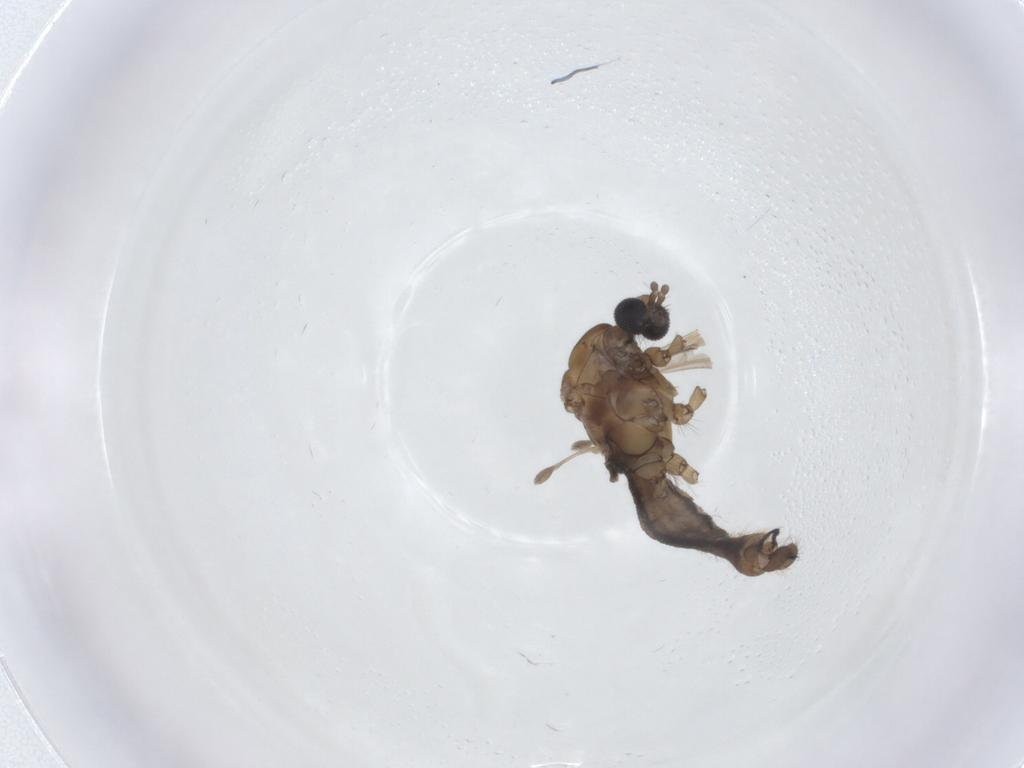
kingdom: Animalia
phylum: Arthropoda
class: Insecta
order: Diptera
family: Limoniidae
